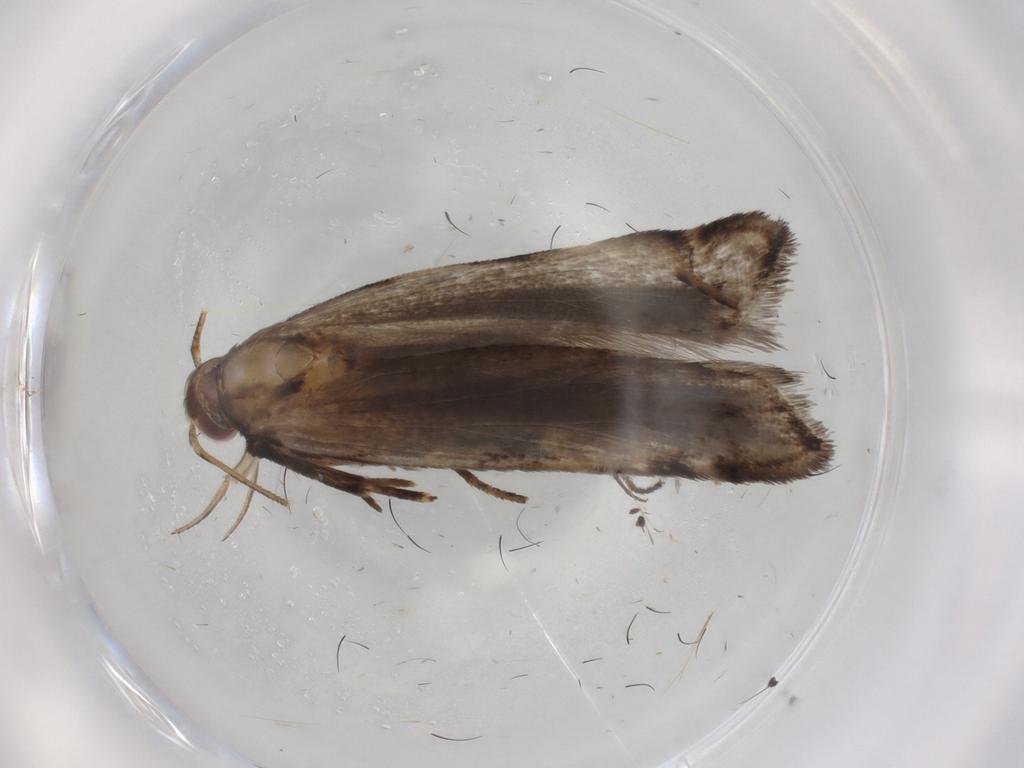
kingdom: Animalia
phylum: Arthropoda
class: Insecta
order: Lepidoptera
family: Gelechiidae
